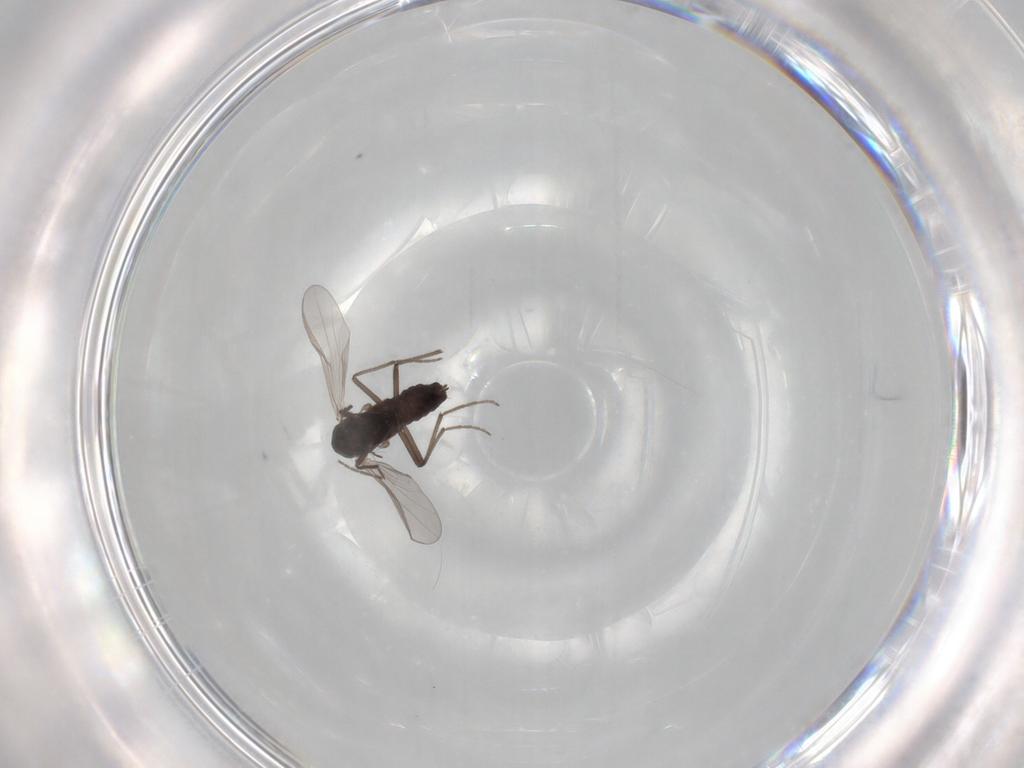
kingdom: Animalia
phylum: Arthropoda
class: Insecta
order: Diptera
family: Chironomidae
